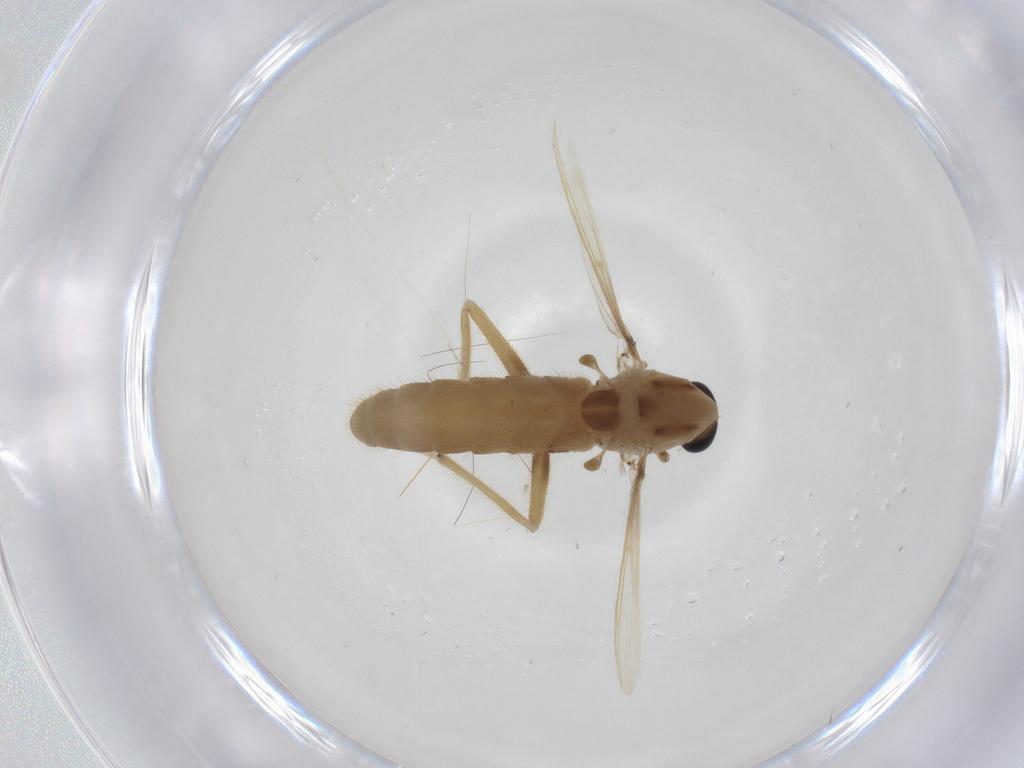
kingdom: Animalia
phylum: Arthropoda
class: Insecta
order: Diptera
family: Chironomidae
